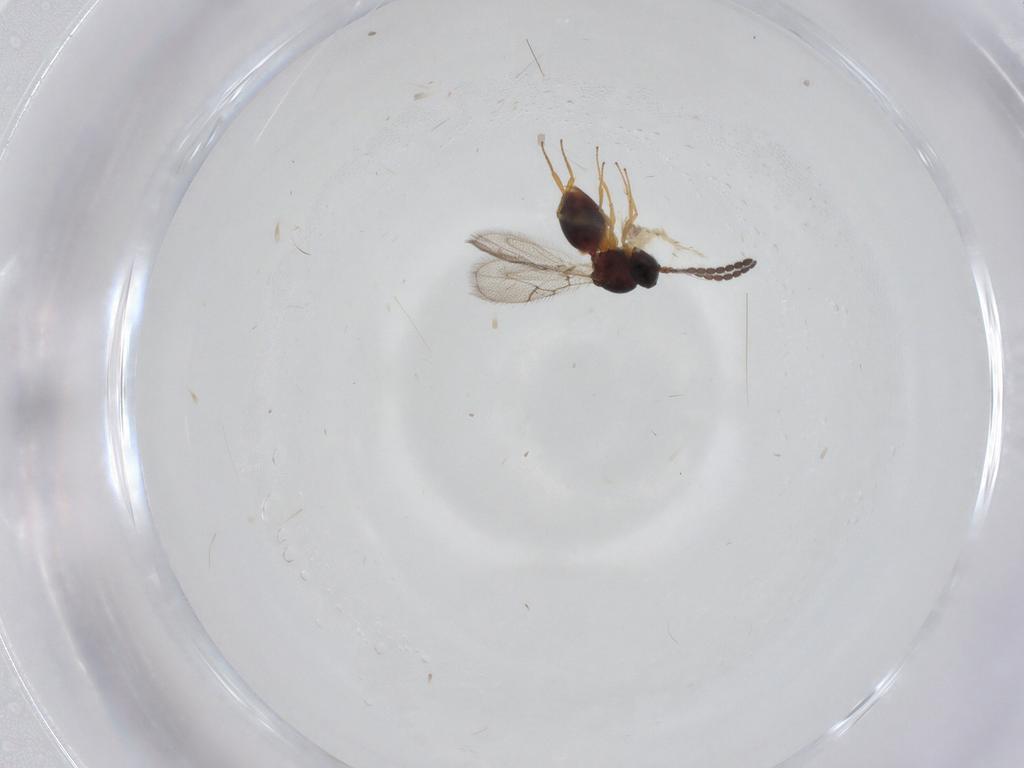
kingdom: Animalia
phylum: Arthropoda
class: Insecta
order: Hymenoptera
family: Figitidae
